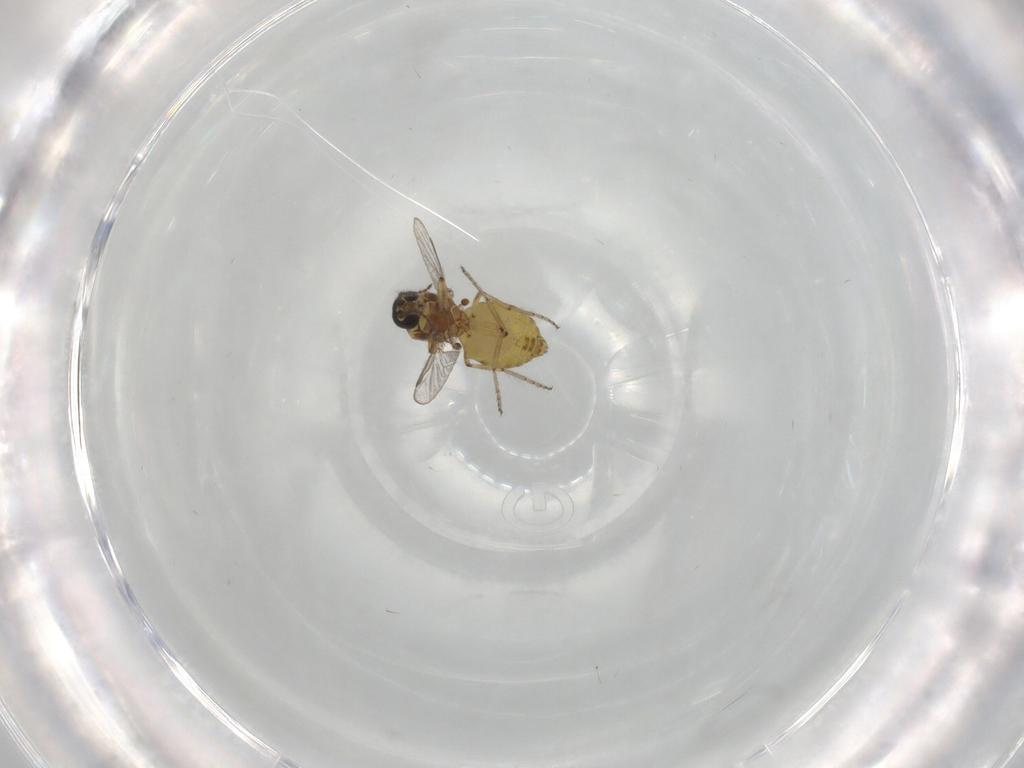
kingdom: Animalia
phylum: Arthropoda
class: Insecta
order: Diptera
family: Ceratopogonidae
